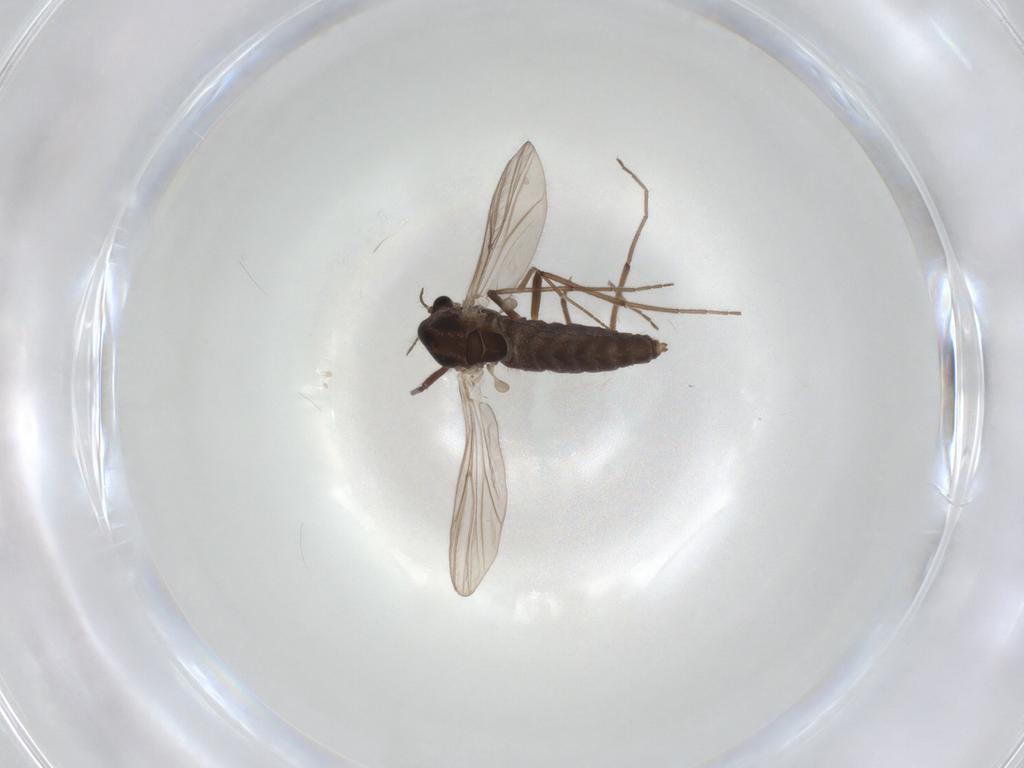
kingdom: Animalia
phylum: Arthropoda
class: Insecta
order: Diptera
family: Chironomidae
